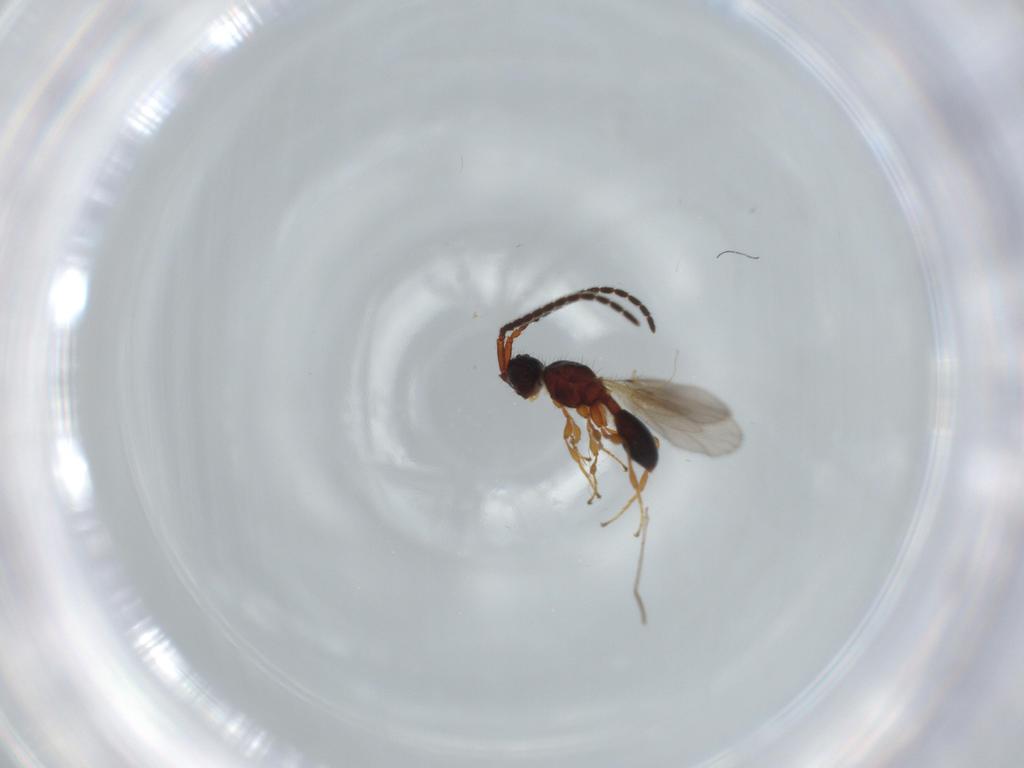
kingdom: Animalia
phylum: Arthropoda
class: Insecta
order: Hymenoptera
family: Diapriidae
